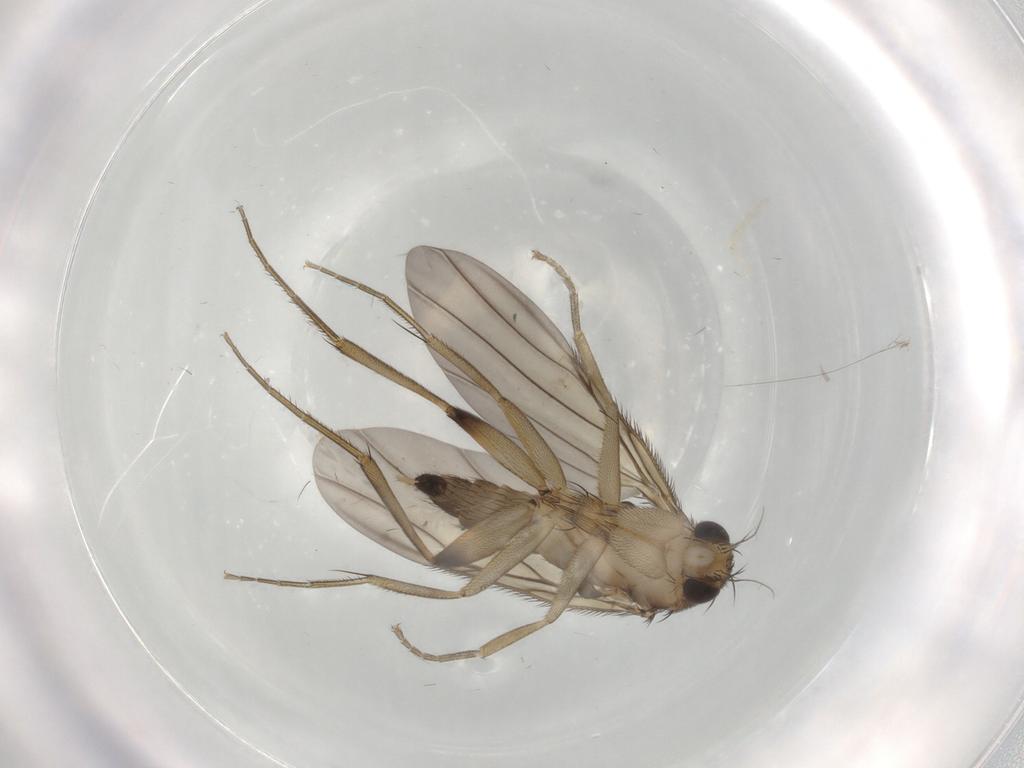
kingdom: Animalia
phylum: Arthropoda
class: Insecta
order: Diptera
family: Phoridae
